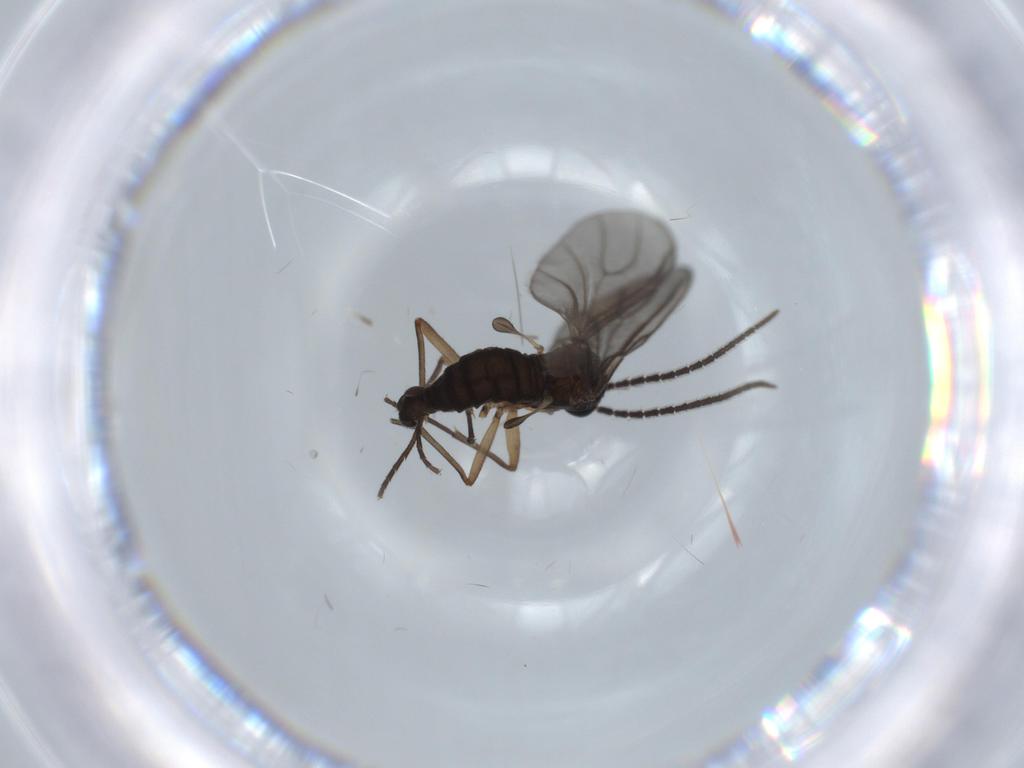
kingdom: Animalia
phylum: Arthropoda
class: Insecta
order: Diptera
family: Sciaridae
